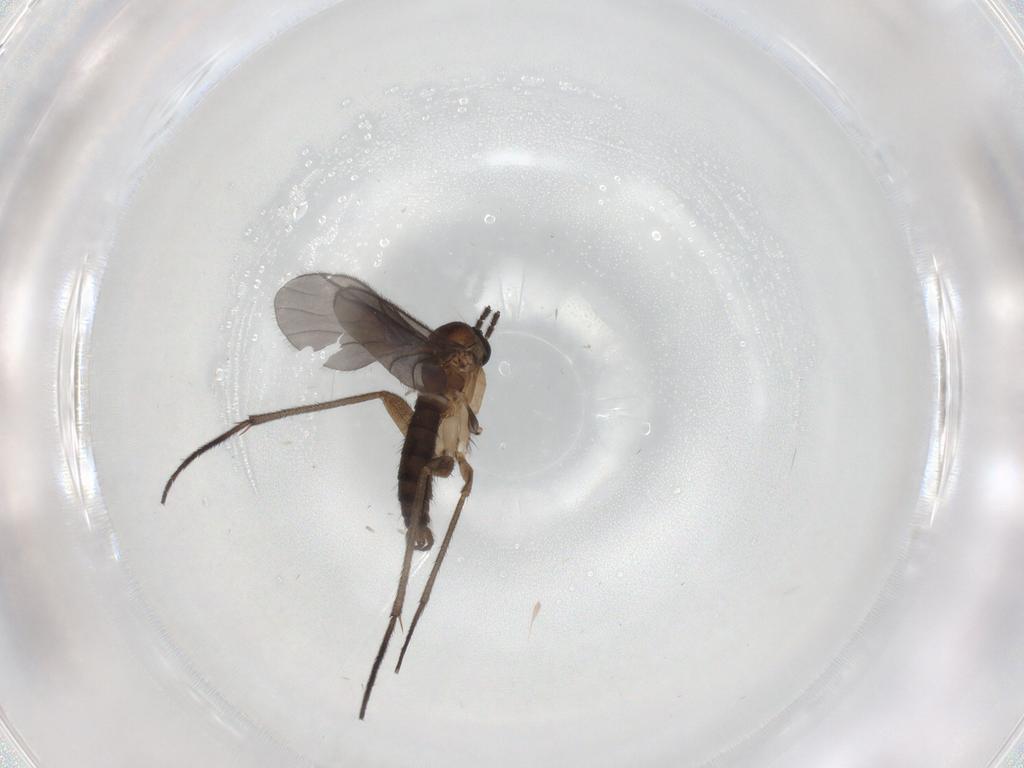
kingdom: Animalia
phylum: Arthropoda
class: Insecta
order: Diptera
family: Sciaridae
